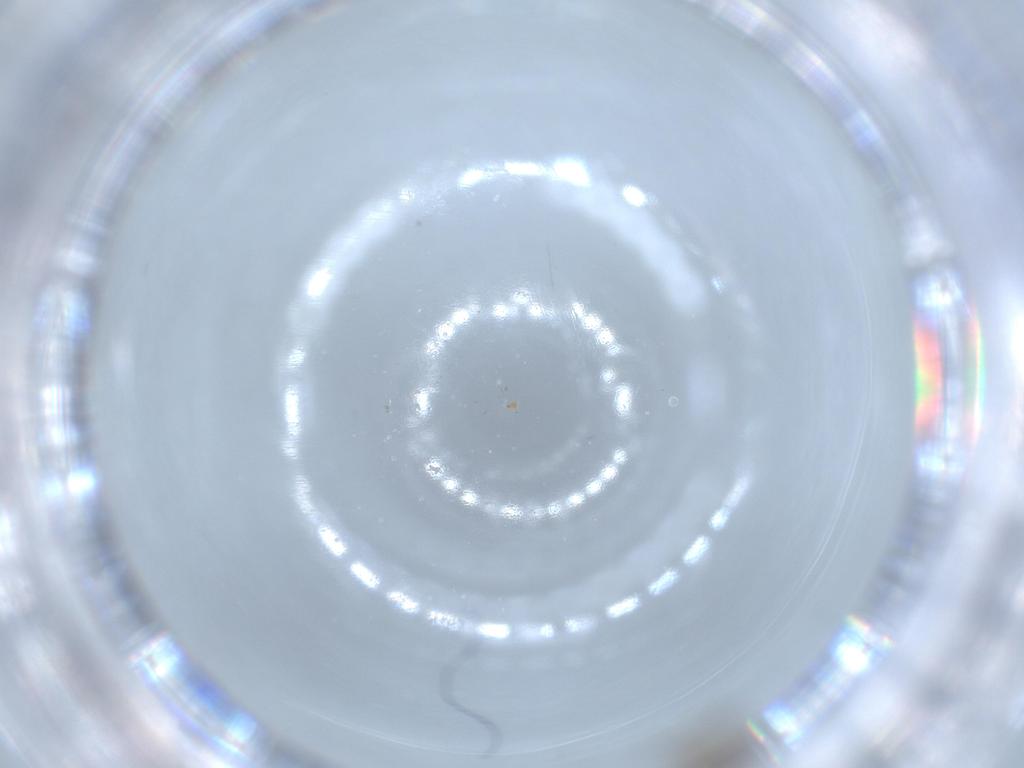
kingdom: Animalia
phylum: Arthropoda
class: Insecta
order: Diptera
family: Chironomidae
